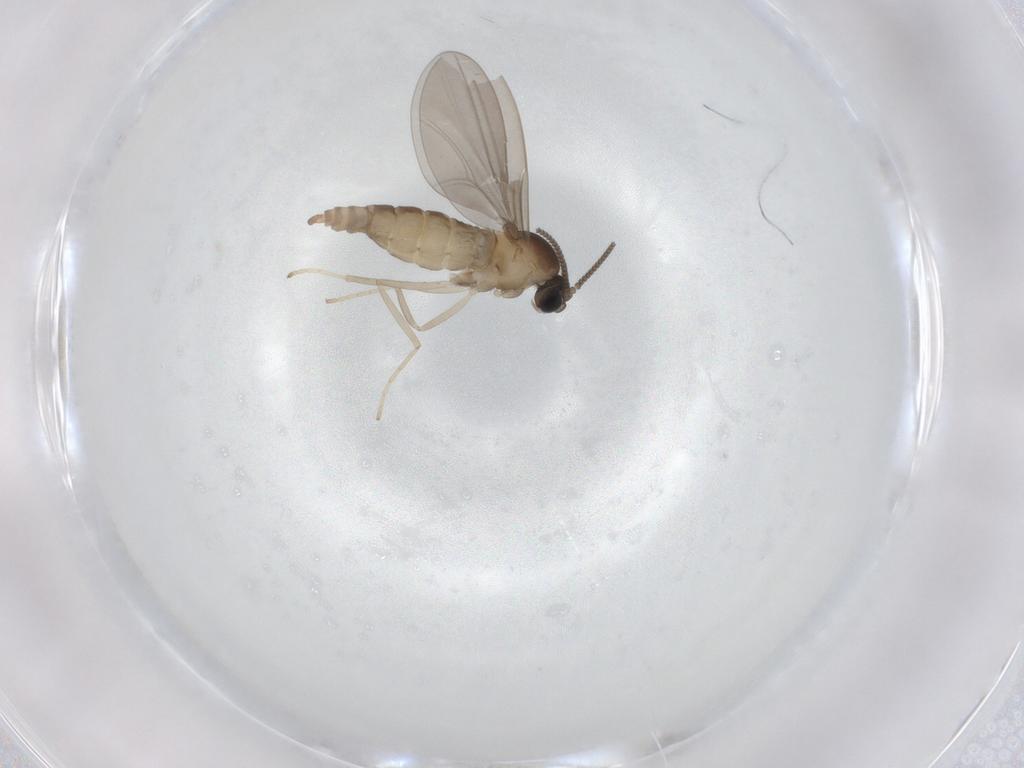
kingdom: Animalia
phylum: Arthropoda
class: Insecta
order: Diptera
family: Cecidomyiidae
